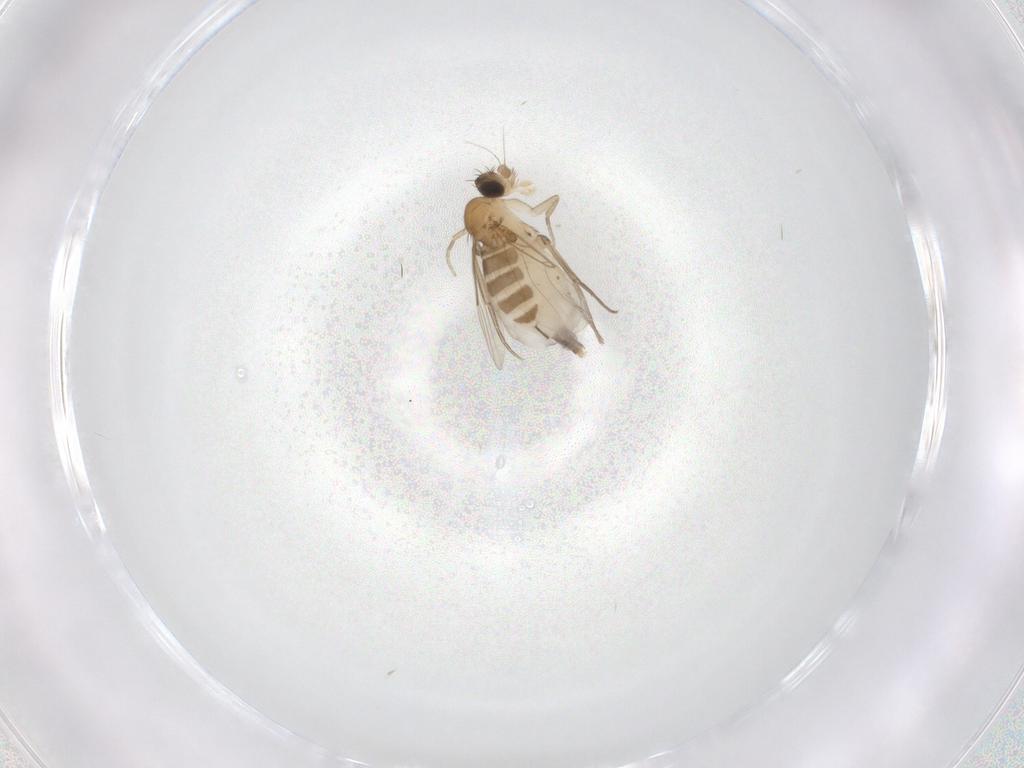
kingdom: Animalia
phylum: Arthropoda
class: Insecta
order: Diptera
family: Phoridae
